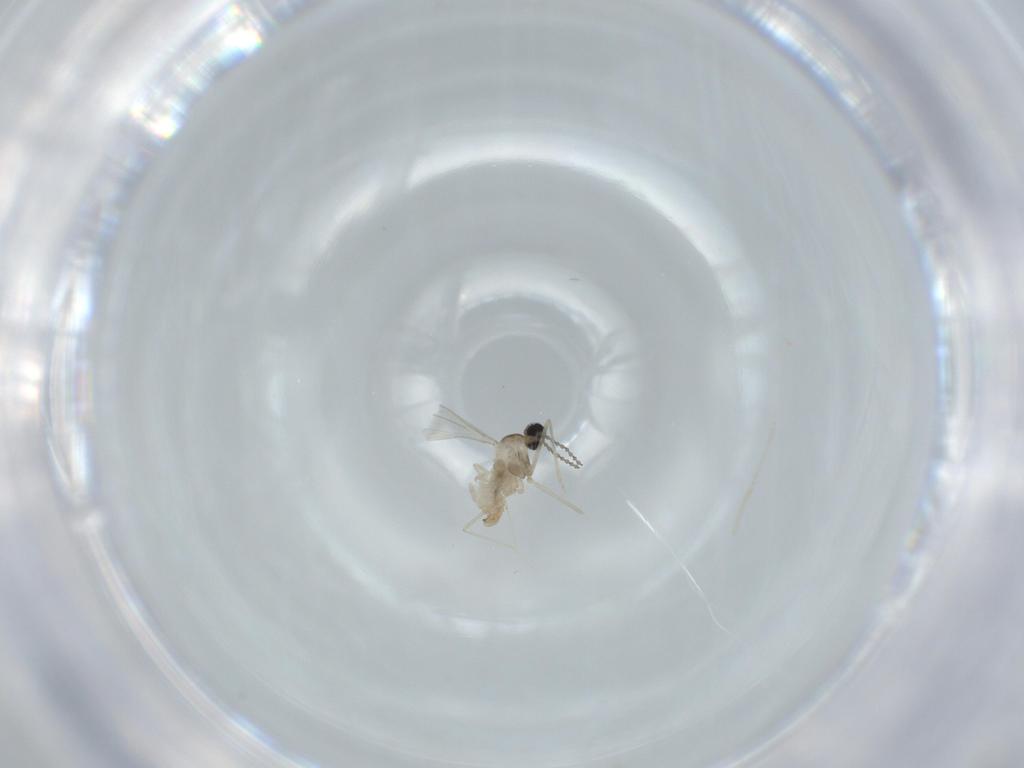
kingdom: Animalia
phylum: Arthropoda
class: Insecta
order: Diptera
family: Cecidomyiidae
